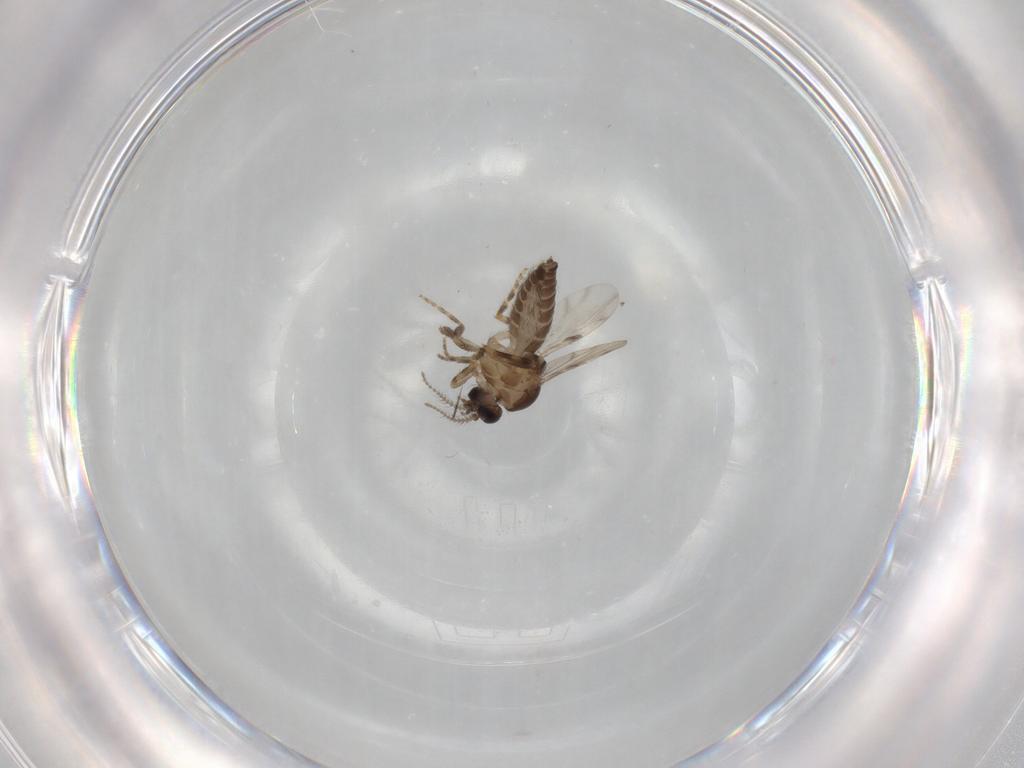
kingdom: Animalia
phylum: Arthropoda
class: Insecta
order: Diptera
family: Ceratopogonidae
